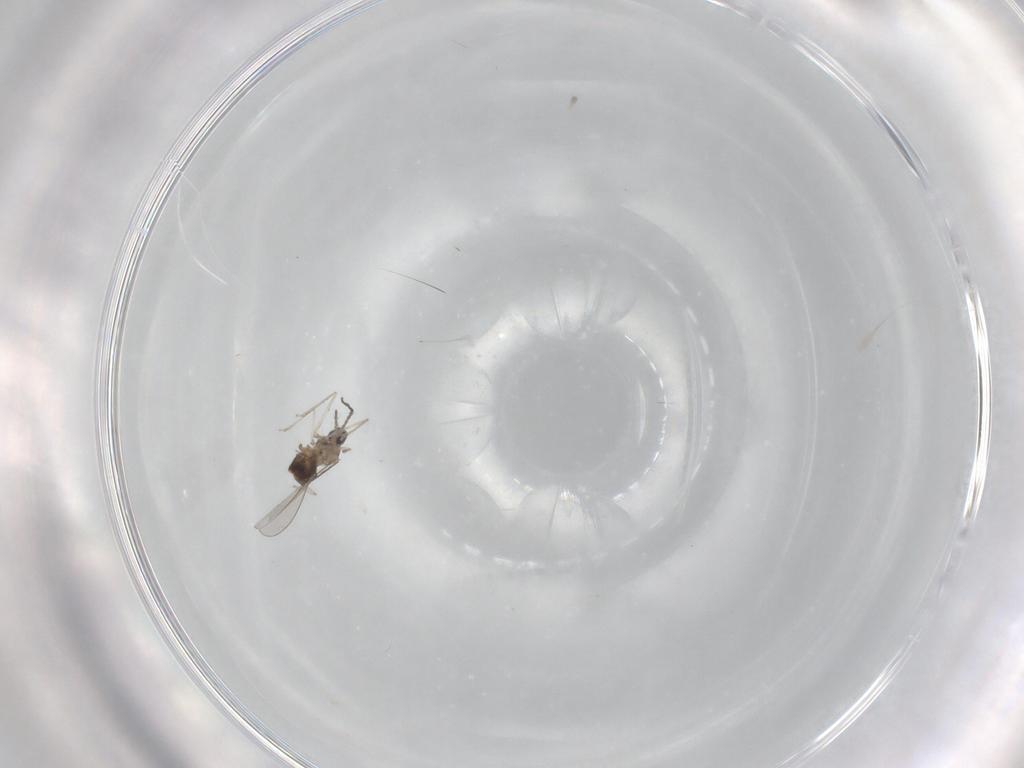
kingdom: Animalia
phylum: Arthropoda
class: Insecta
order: Diptera
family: Cecidomyiidae
